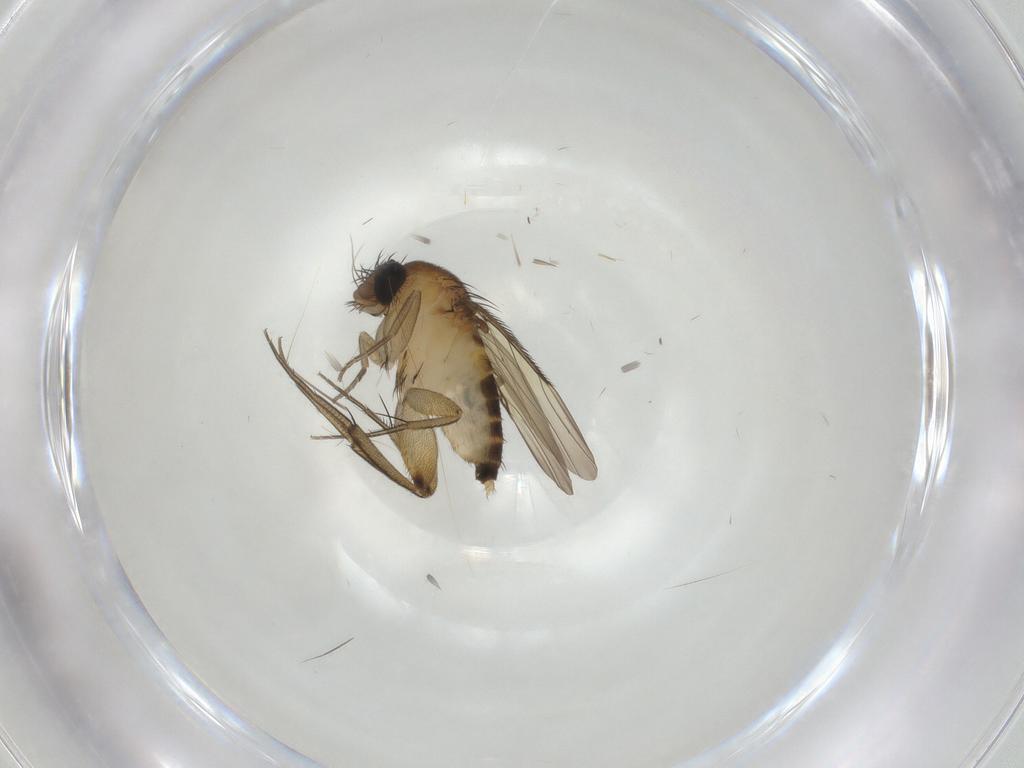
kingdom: Animalia
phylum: Arthropoda
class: Insecta
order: Diptera
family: Phoridae
